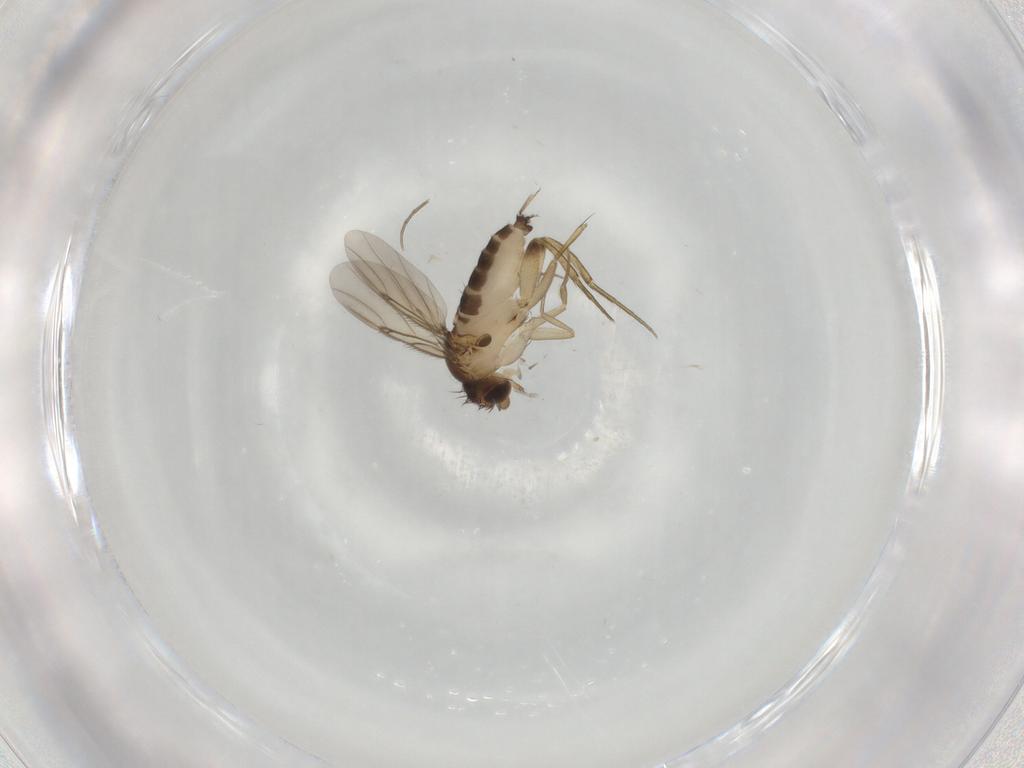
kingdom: Animalia
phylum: Arthropoda
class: Insecta
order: Diptera
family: Phoridae
